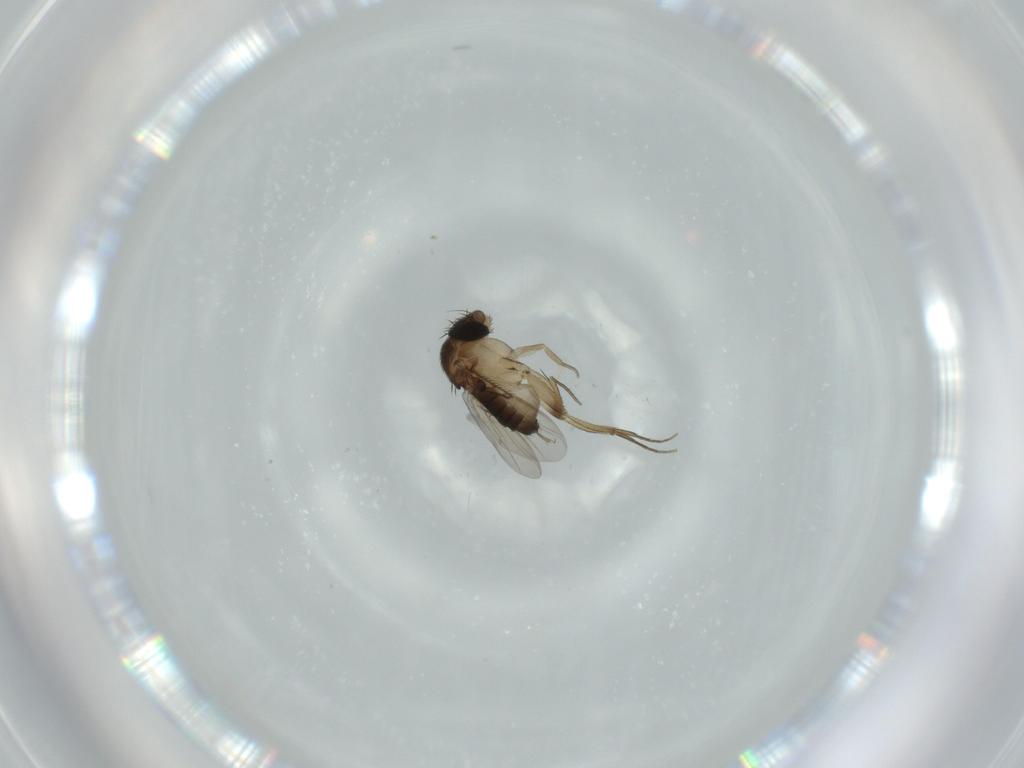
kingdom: Animalia
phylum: Arthropoda
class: Insecta
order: Diptera
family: Phoridae
